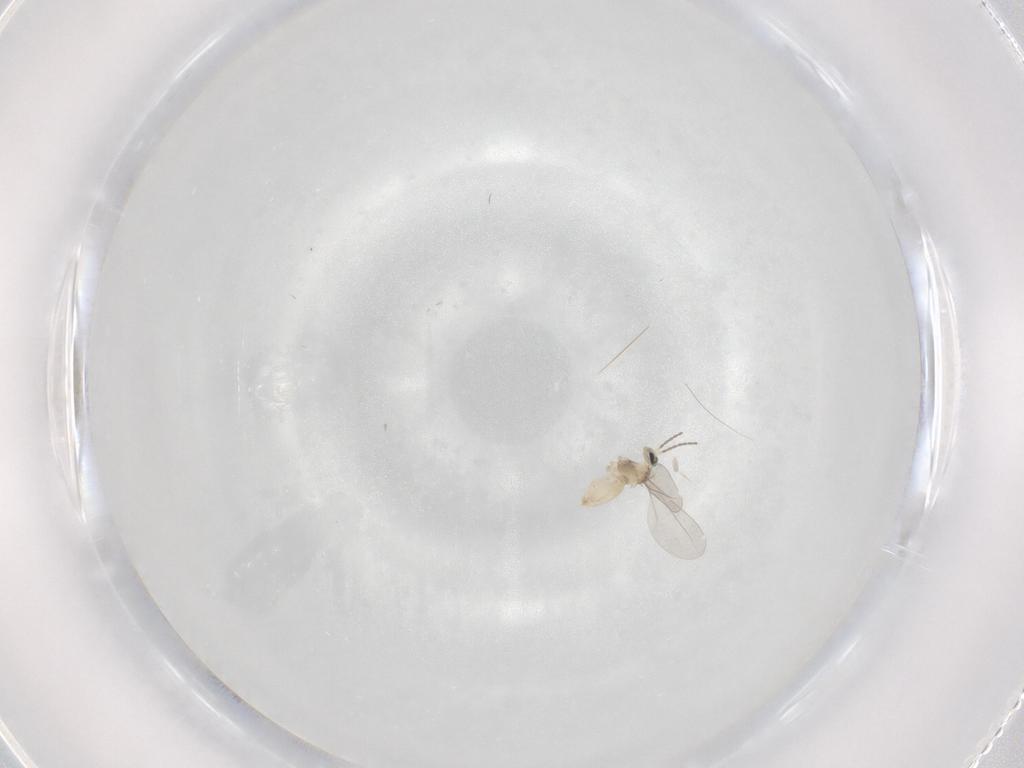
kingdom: Animalia
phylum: Arthropoda
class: Insecta
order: Diptera
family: Cecidomyiidae
